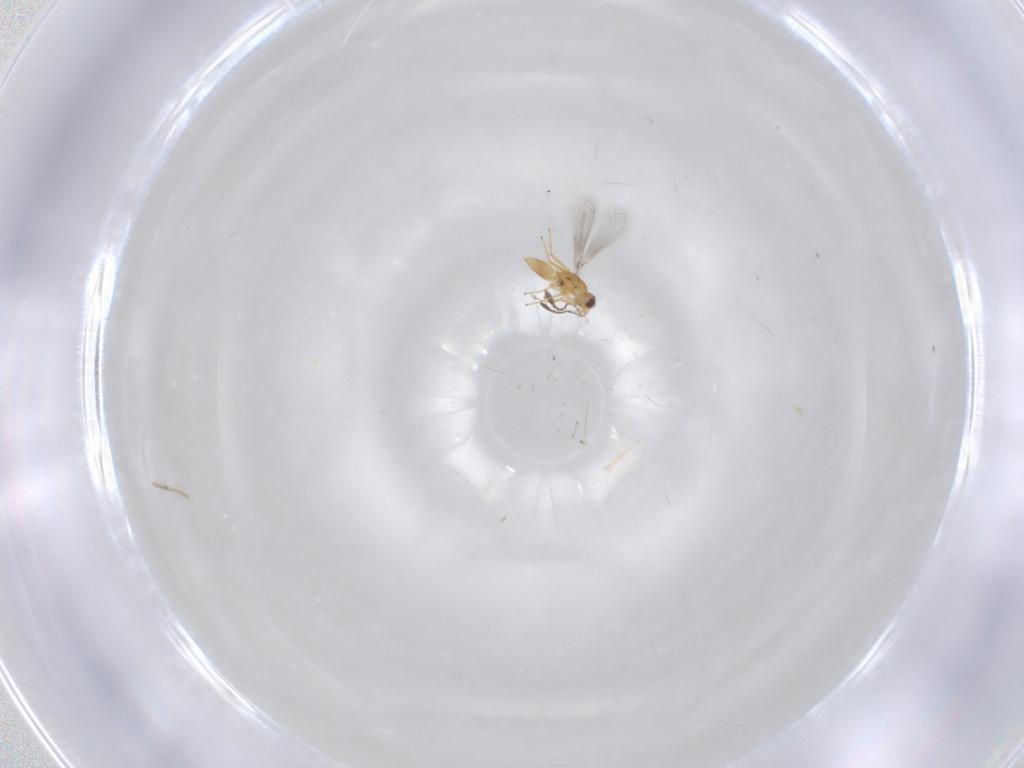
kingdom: Animalia
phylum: Arthropoda
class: Insecta
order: Hymenoptera
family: Mymaridae
